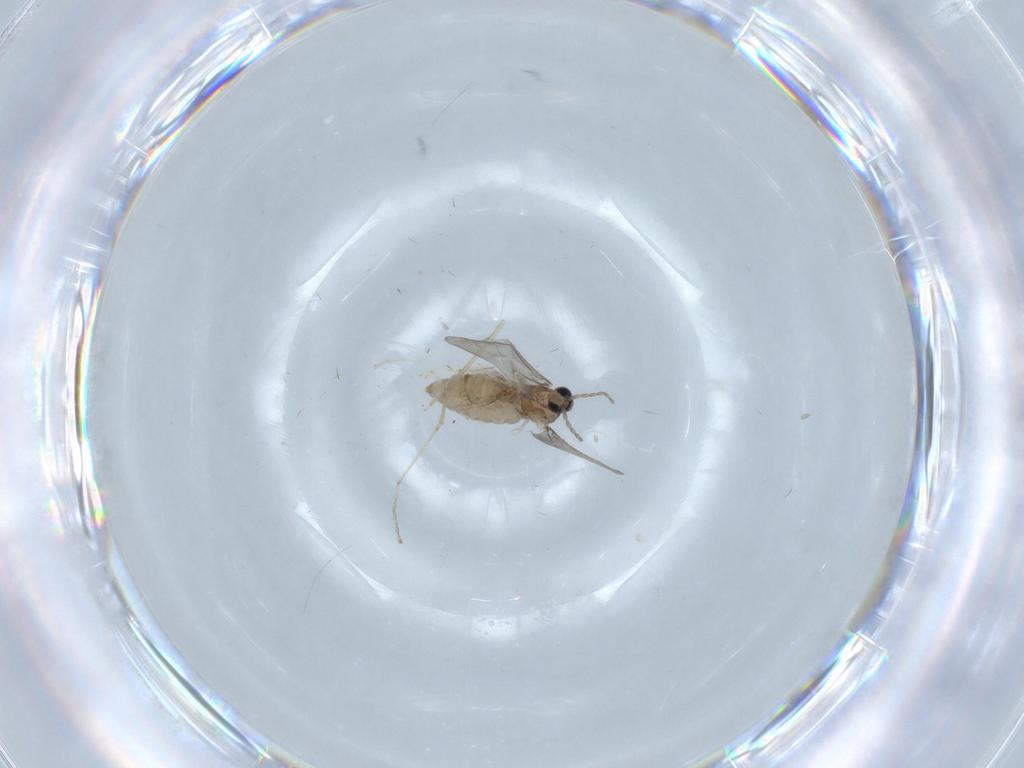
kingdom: Animalia
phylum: Arthropoda
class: Insecta
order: Diptera
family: Cecidomyiidae
